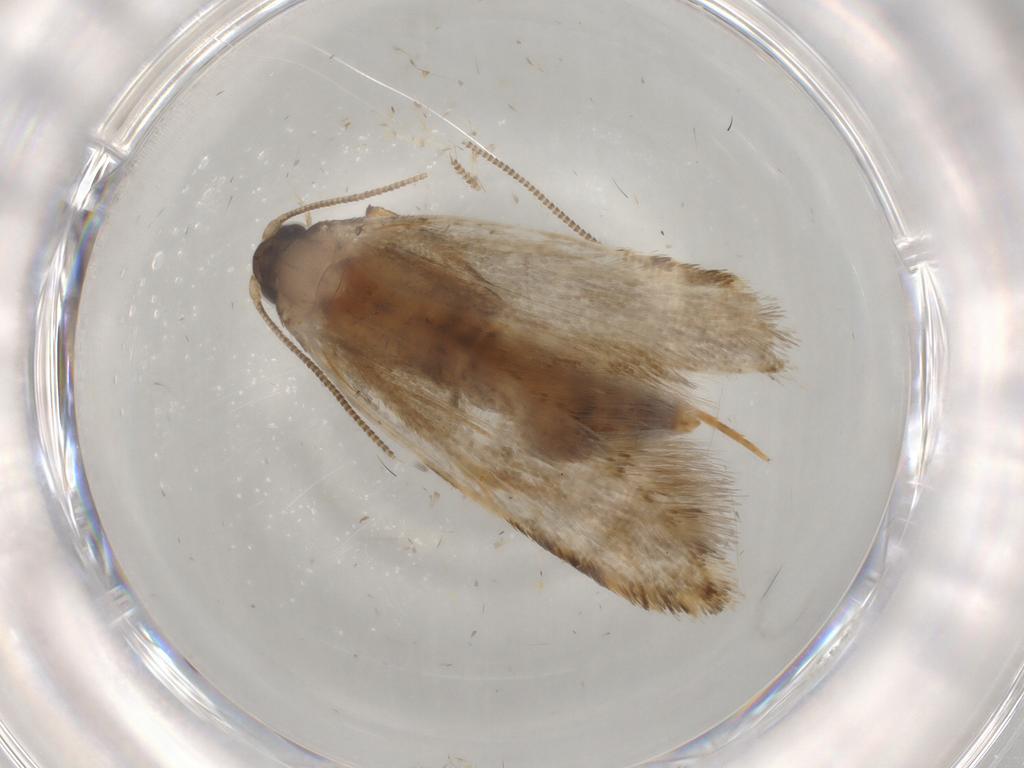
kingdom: Animalia
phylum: Arthropoda
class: Insecta
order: Lepidoptera
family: Tineidae
